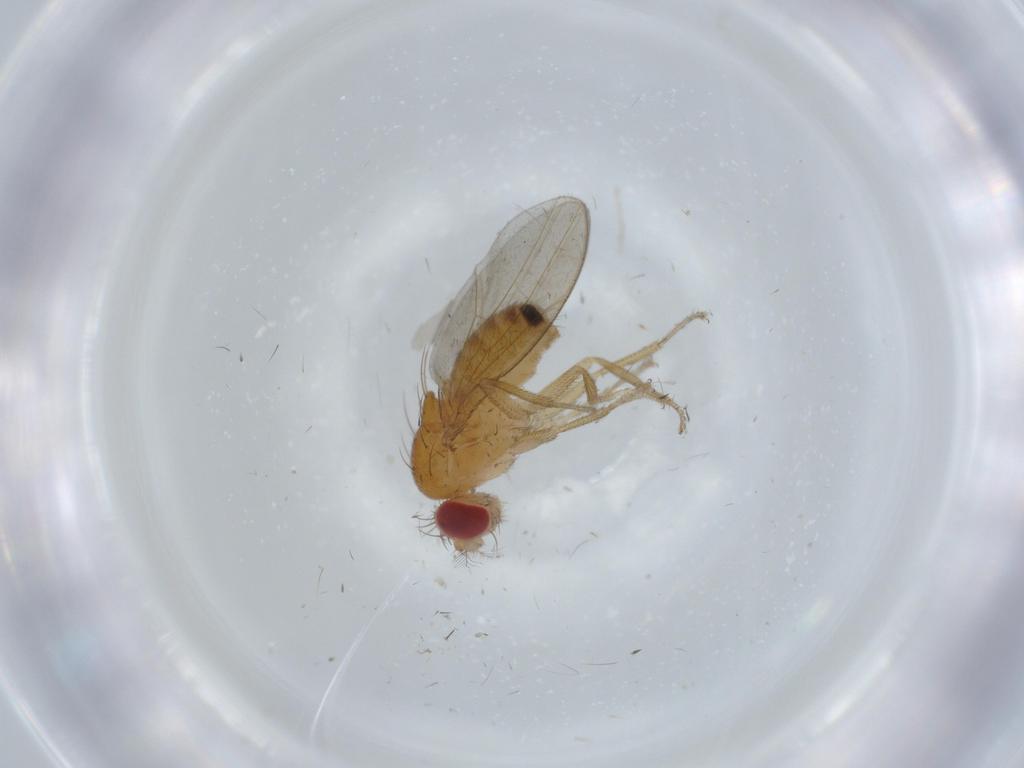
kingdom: Animalia
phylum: Arthropoda
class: Insecta
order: Diptera
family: Drosophilidae
